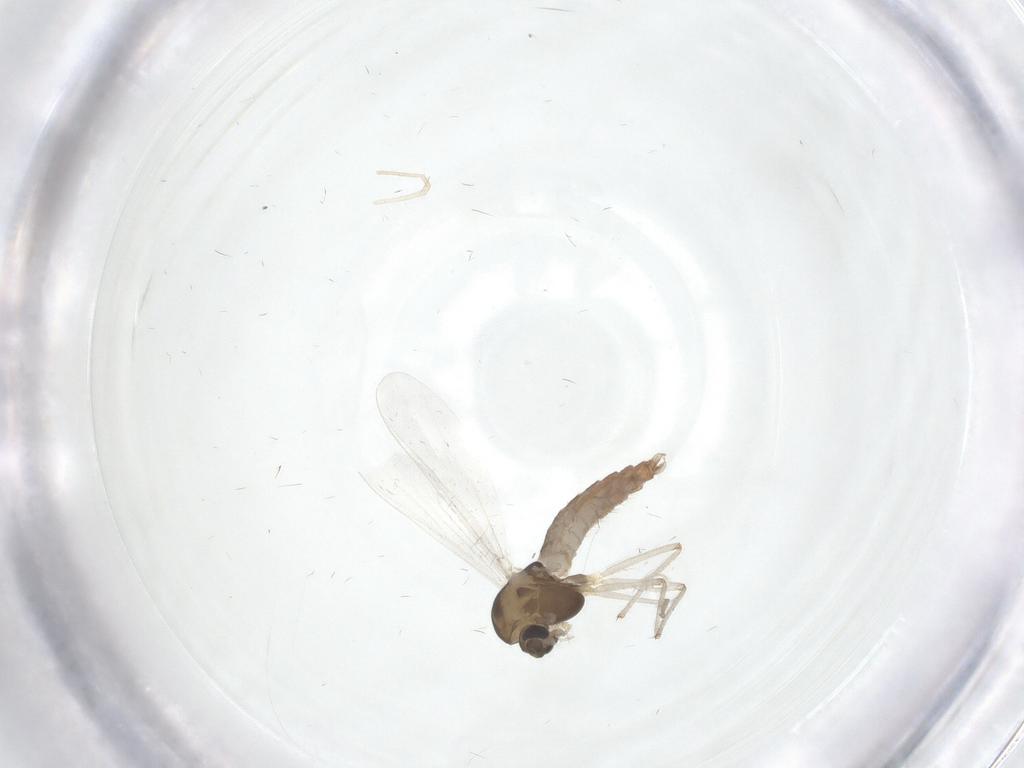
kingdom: Animalia
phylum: Arthropoda
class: Insecta
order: Diptera
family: Chironomidae
